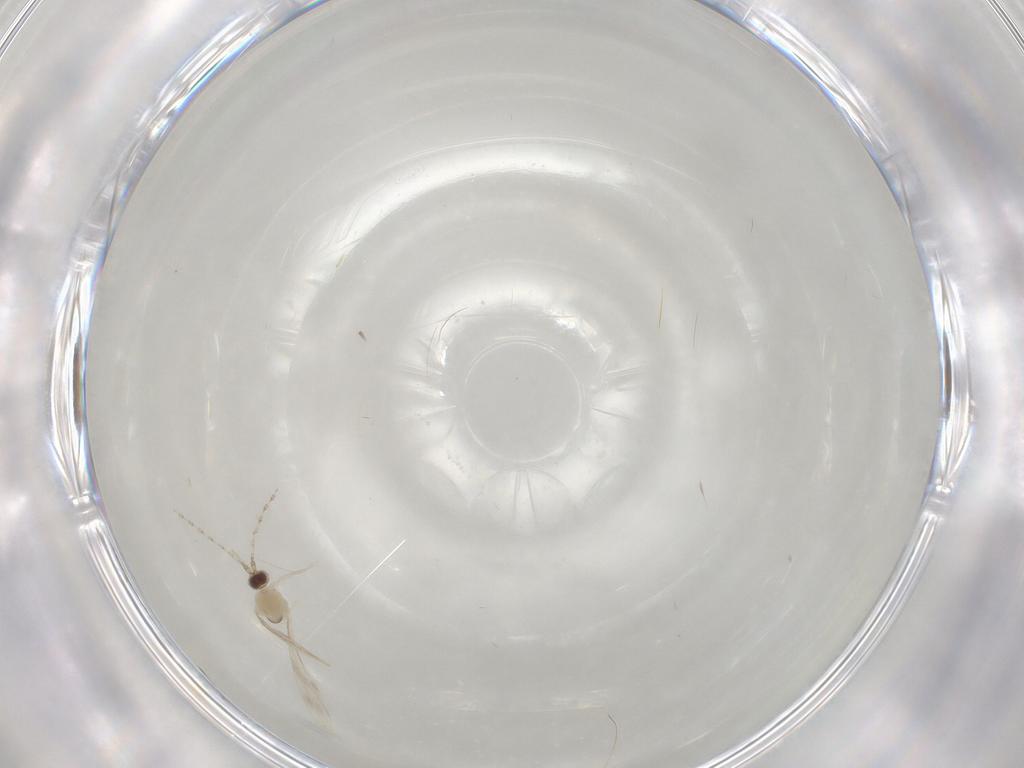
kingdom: Animalia
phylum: Arthropoda
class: Insecta
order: Diptera
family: Cecidomyiidae
